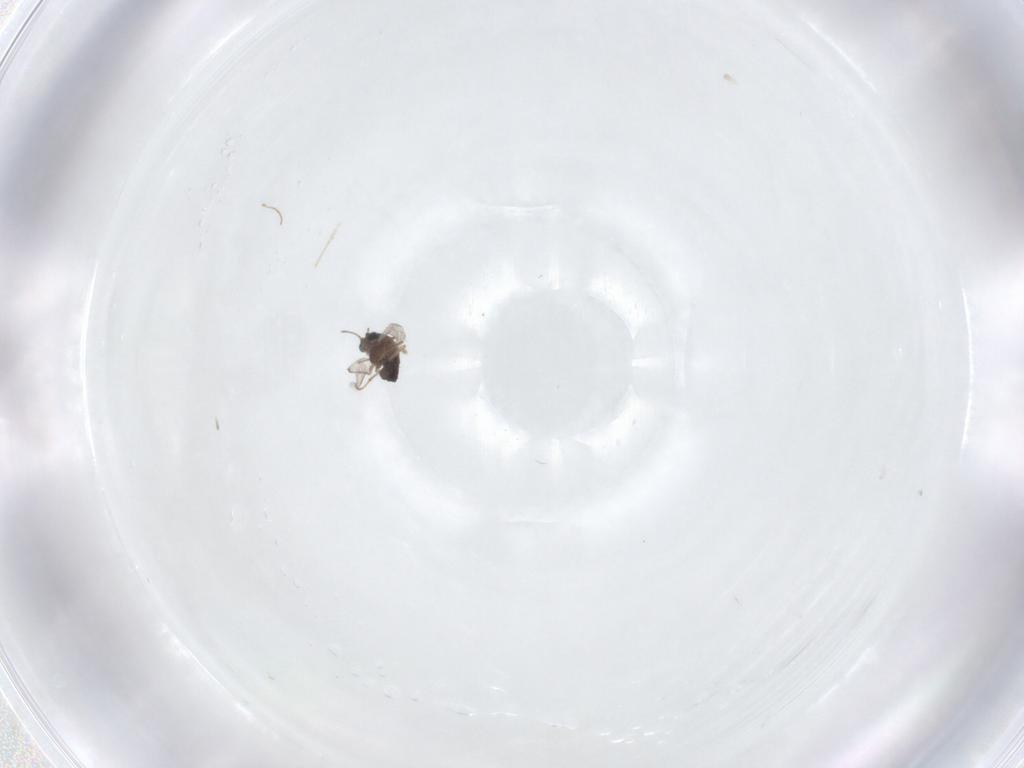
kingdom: Animalia
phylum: Arthropoda
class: Insecta
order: Diptera
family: Chironomidae
